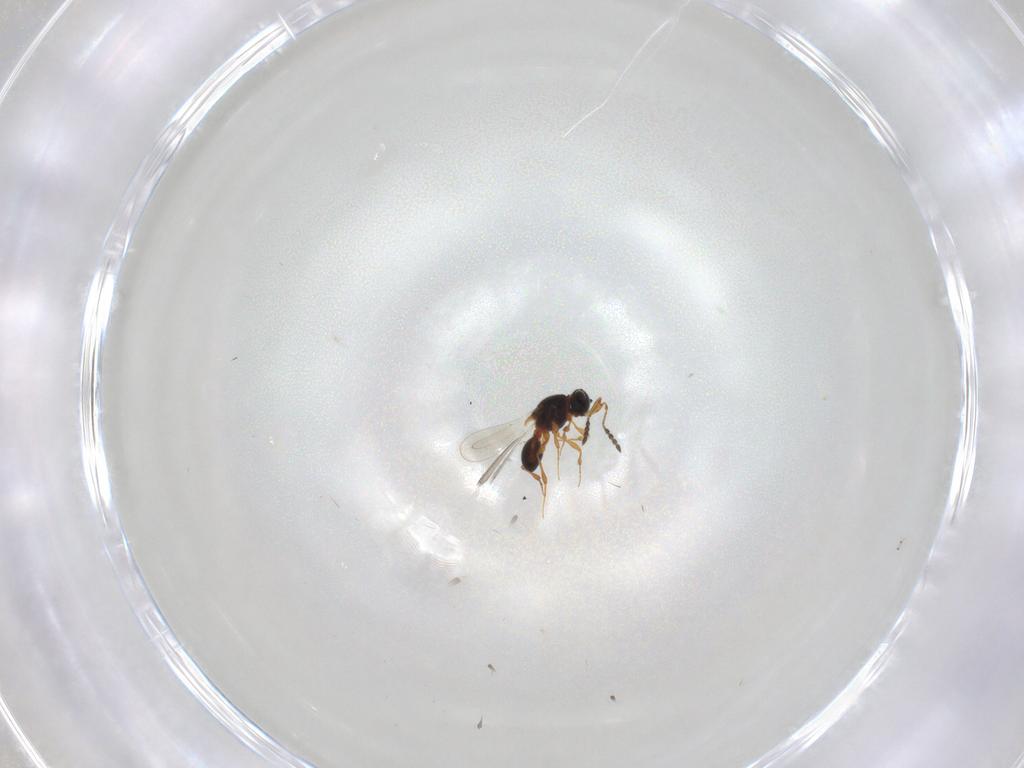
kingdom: Animalia
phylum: Arthropoda
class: Insecta
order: Hymenoptera
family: Platygastridae
